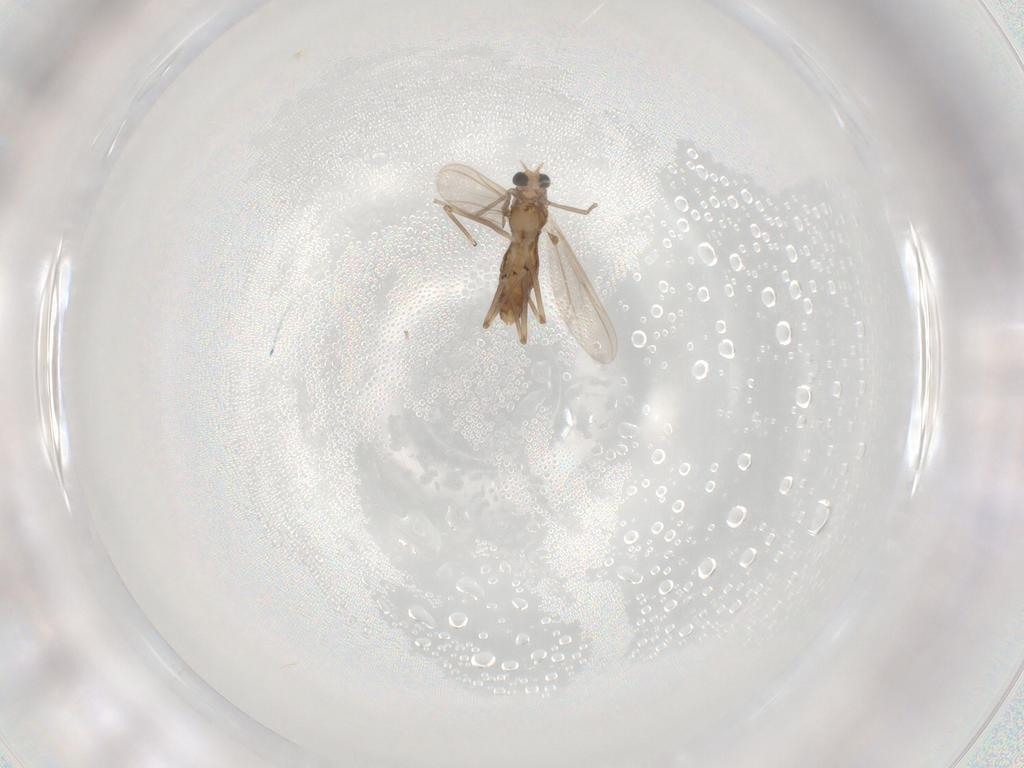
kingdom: Animalia
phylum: Arthropoda
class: Insecta
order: Diptera
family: Chironomidae
